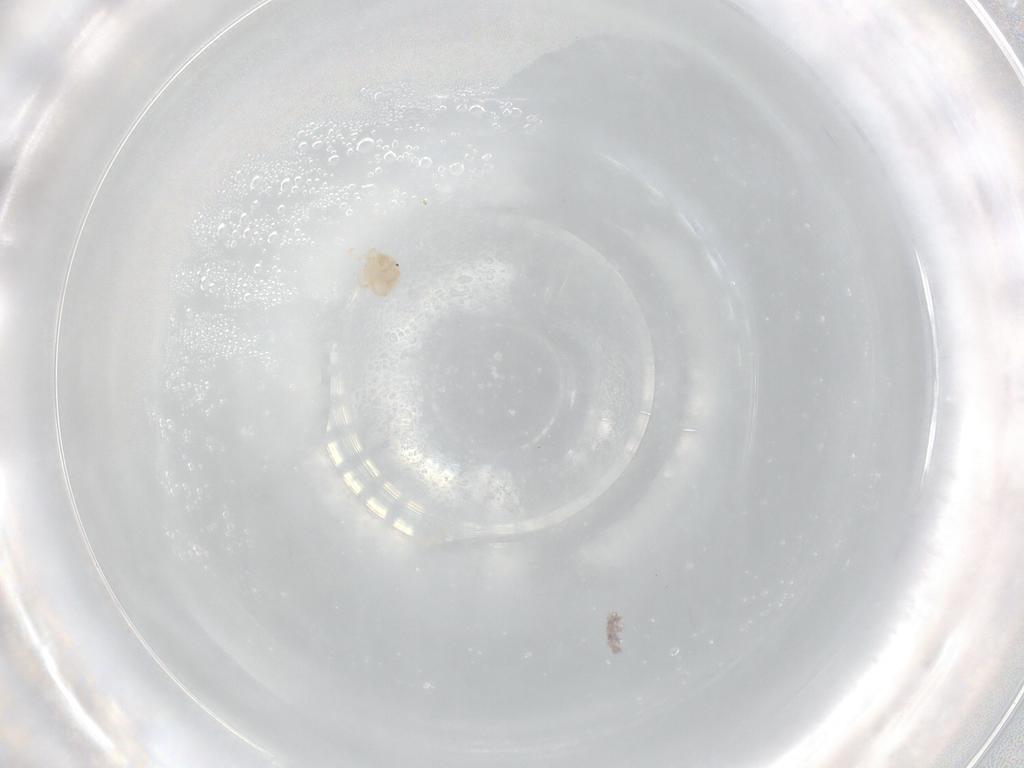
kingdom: Animalia
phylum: Arthropoda
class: Arachnida
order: Trombidiformes
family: Sperchontidae
